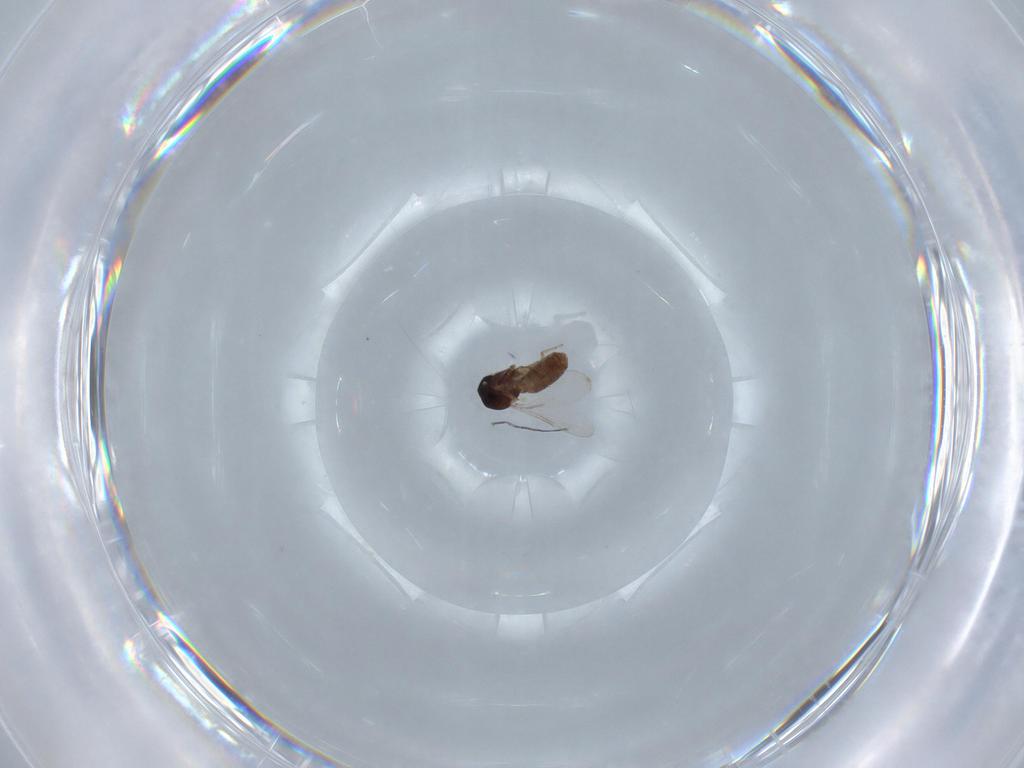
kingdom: Animalia
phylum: Arthropoda
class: Insecta
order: Diptera
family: Ceratopogonidae
